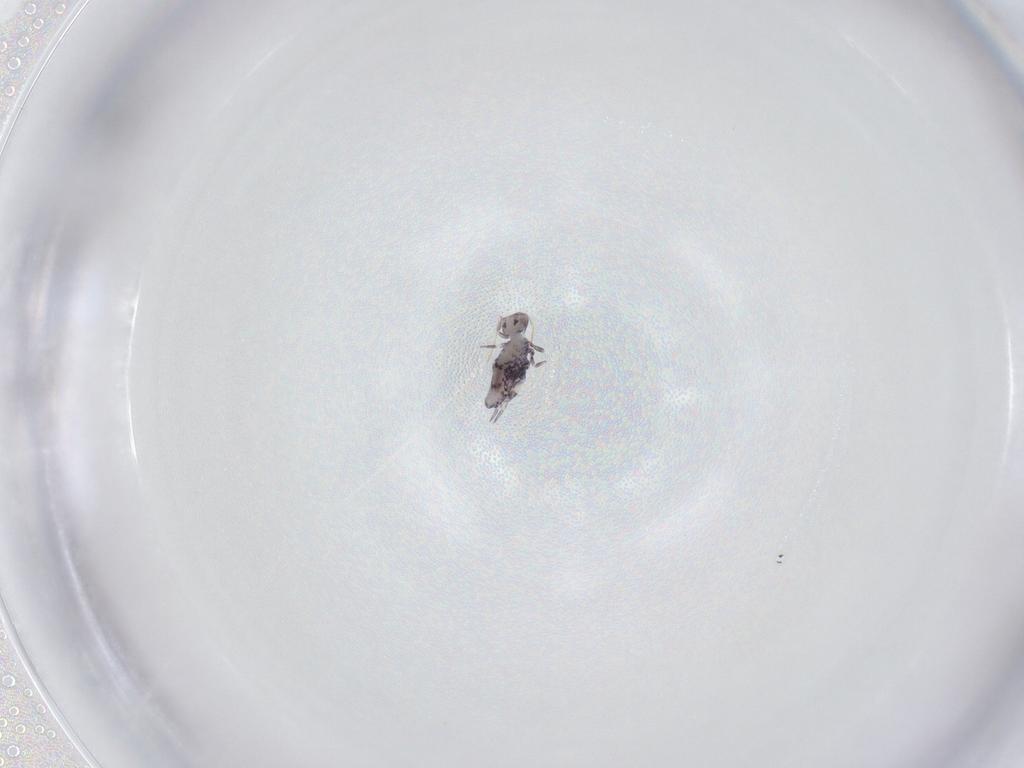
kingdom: Animalia
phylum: Arthropoda
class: Collembola
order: Symphypleona
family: Katiannidae
